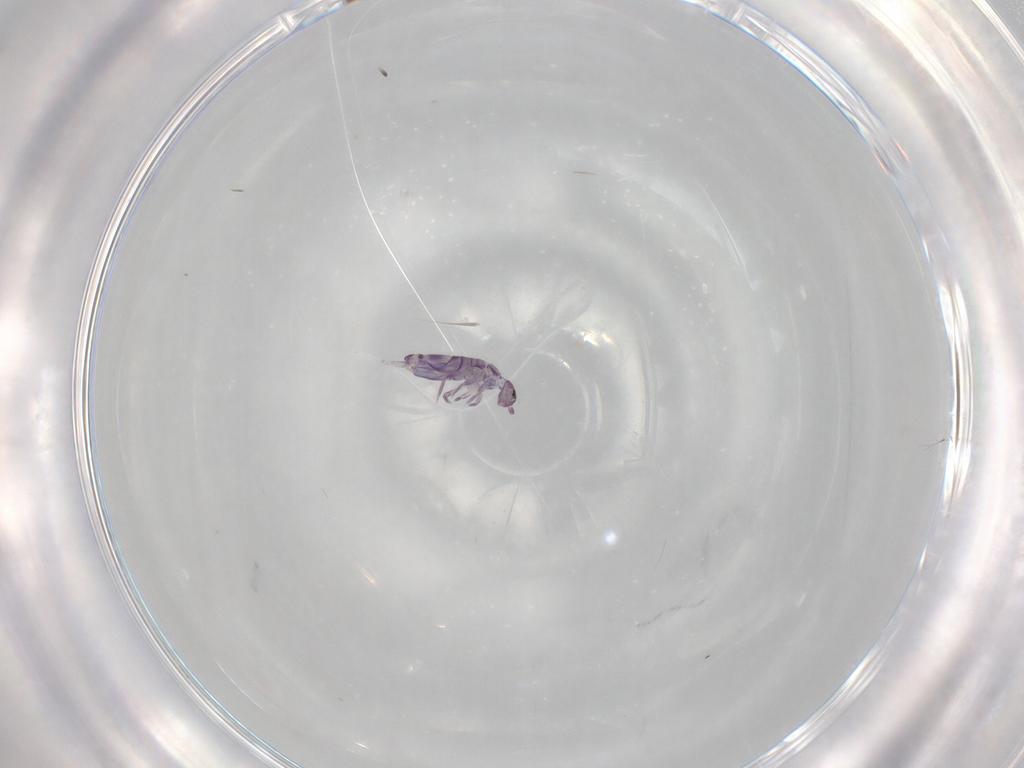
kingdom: Animalia
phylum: Arthropoda
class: Collembola
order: Entomobryomorpha
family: Entomobryidae
